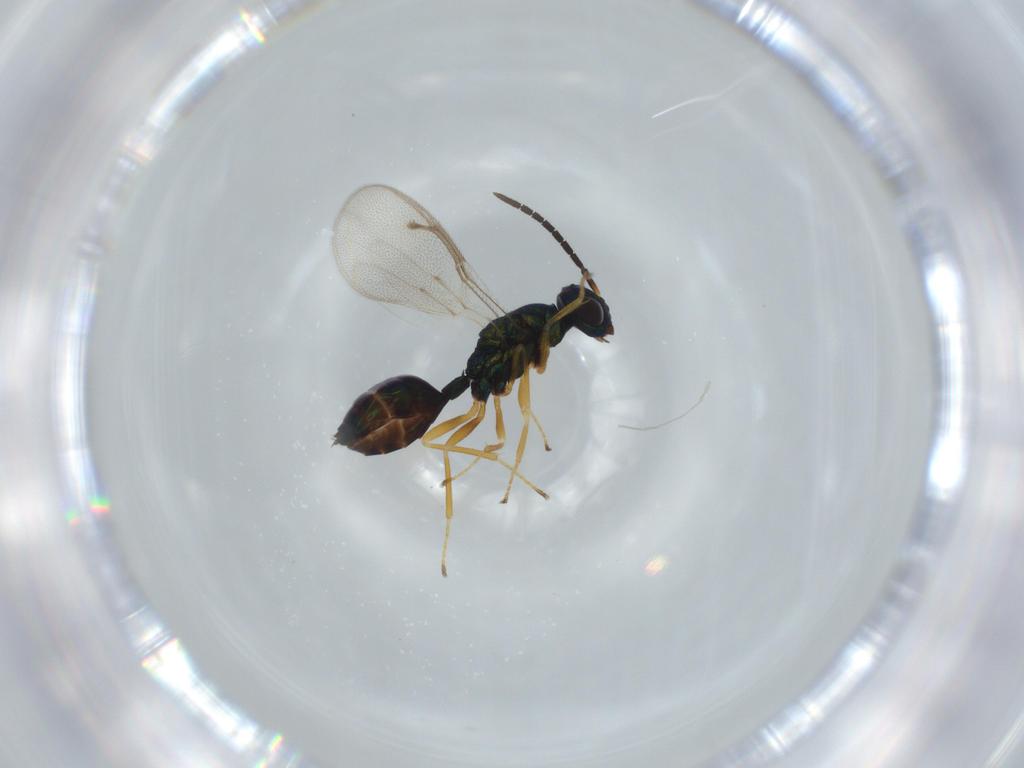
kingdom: Animalia
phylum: Arthropoda
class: Insecta
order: Hymenoptera
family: Pteromalidae
